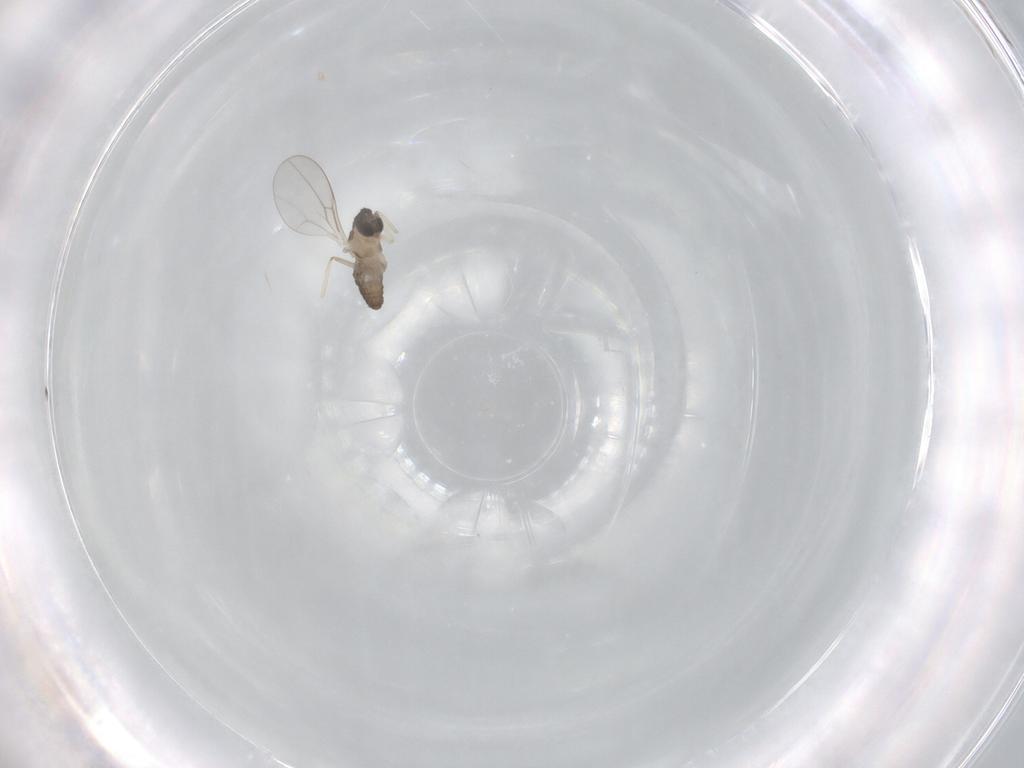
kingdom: Animalia
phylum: Arthropoda
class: Insecta
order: Diptera
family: Cecidomyiidae
